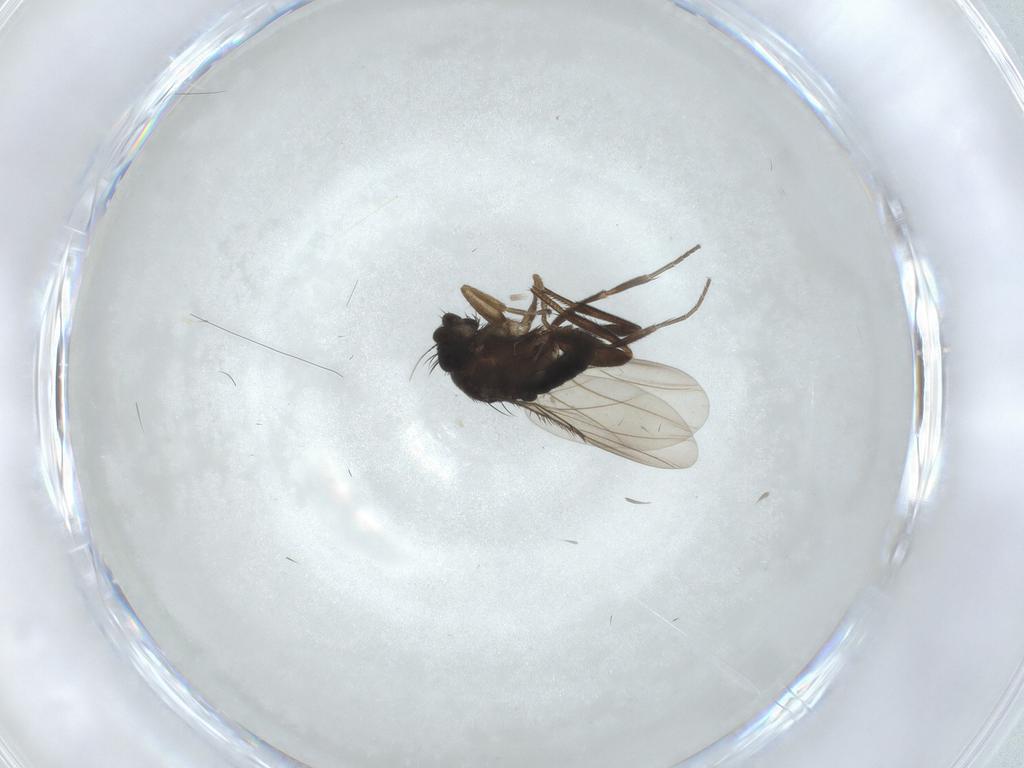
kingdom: Animalia
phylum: Arthropoda
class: Insecta
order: Diptera
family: Phoridae
